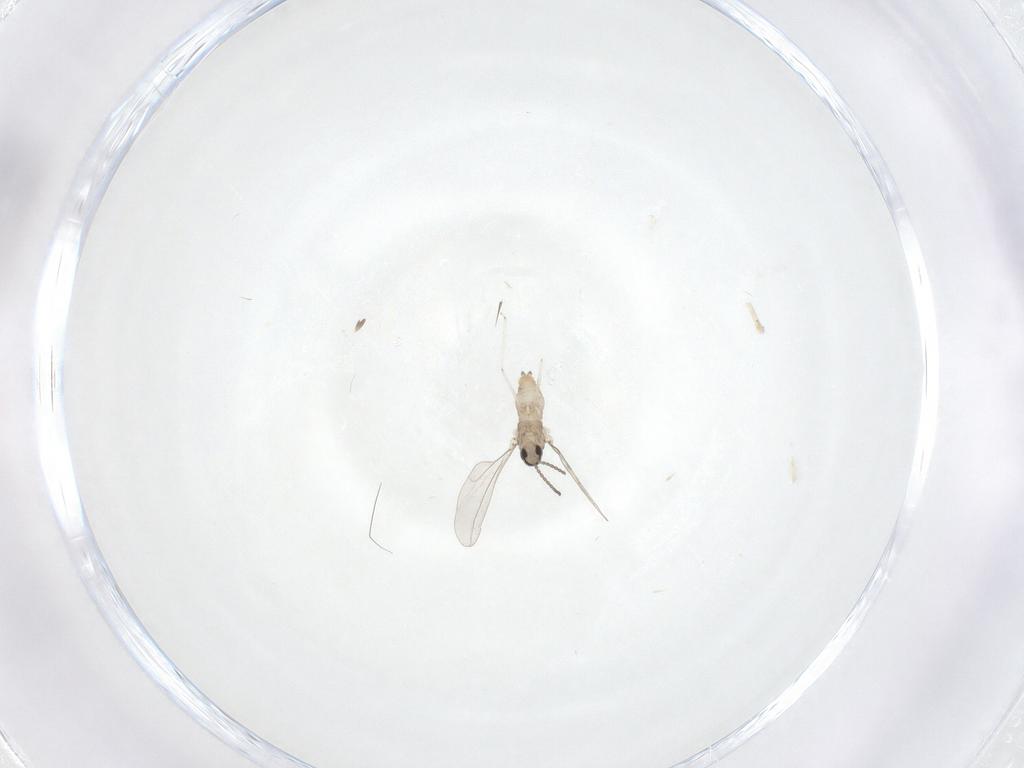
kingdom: Animalia
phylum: Arthropoda
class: Insecta
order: Diptera
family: Cecidomyiidae
